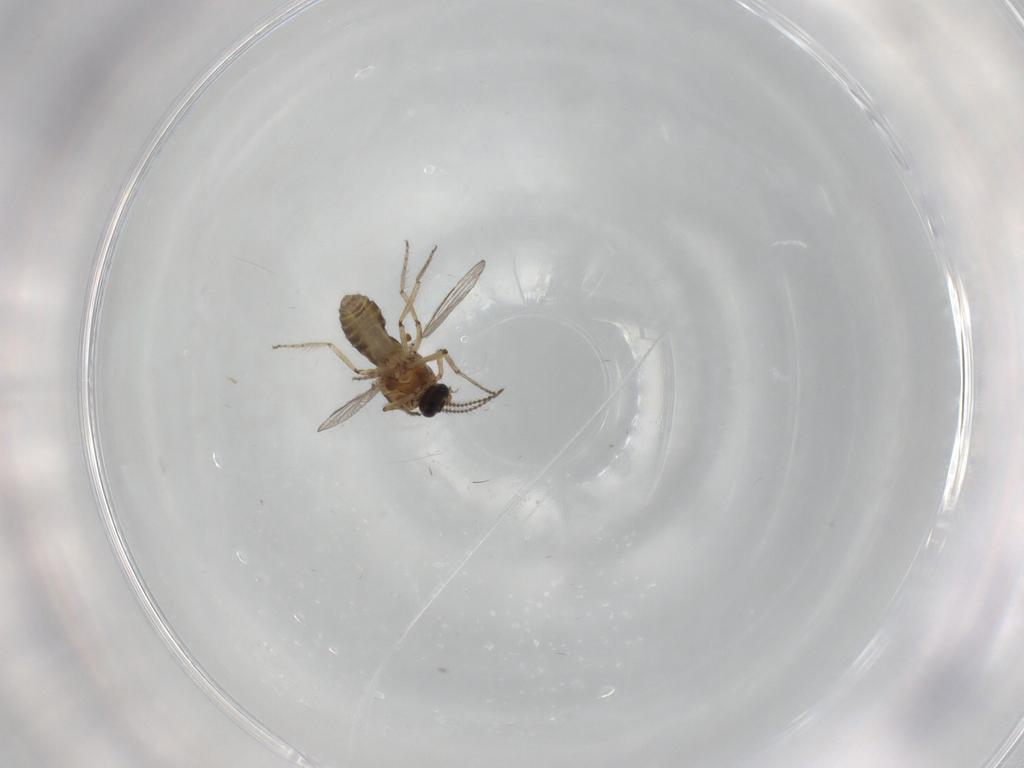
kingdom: Animalia
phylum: Arthropoda
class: Insecta
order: Diptera
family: Ceratopogonidae
